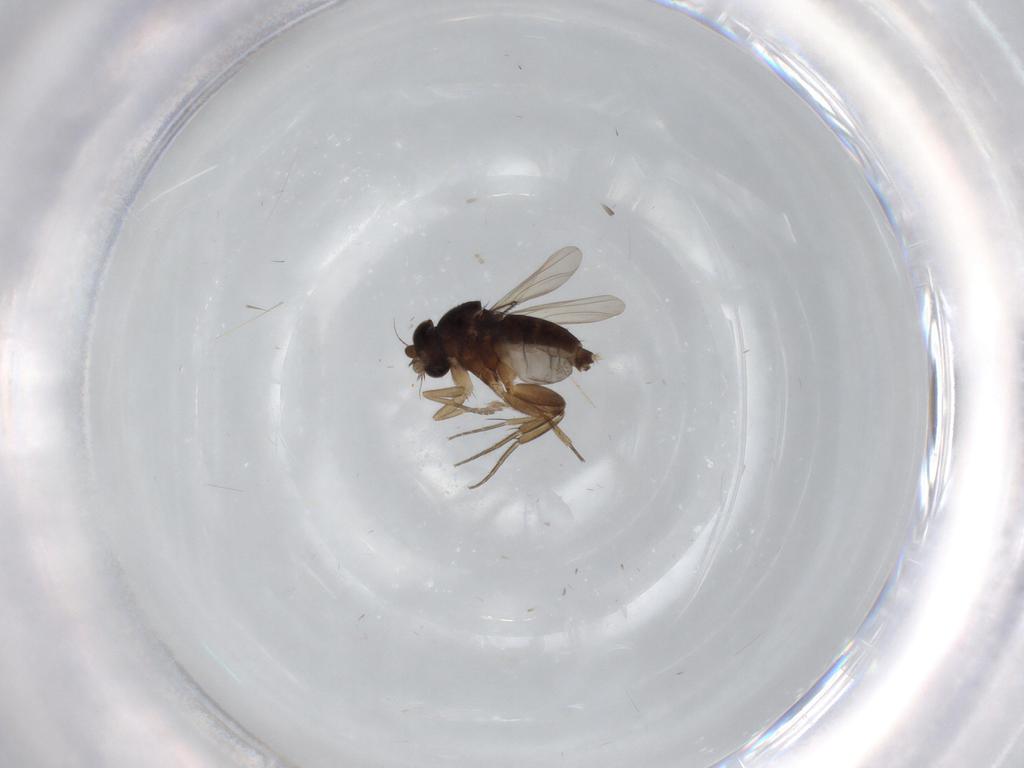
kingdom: Animalia
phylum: Arthropoda
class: Insecta
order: Diptera
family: Phoridae
